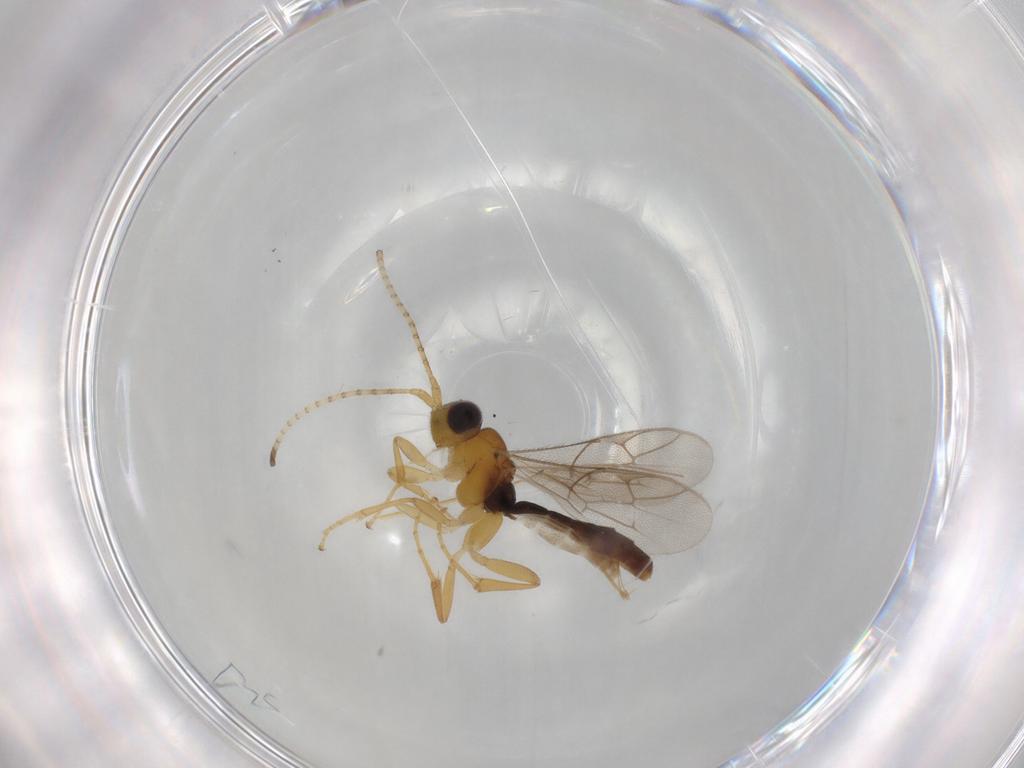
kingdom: Animalia
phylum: Arthropoda
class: Insecta
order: Hymenoptera
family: Ichneumonidae
